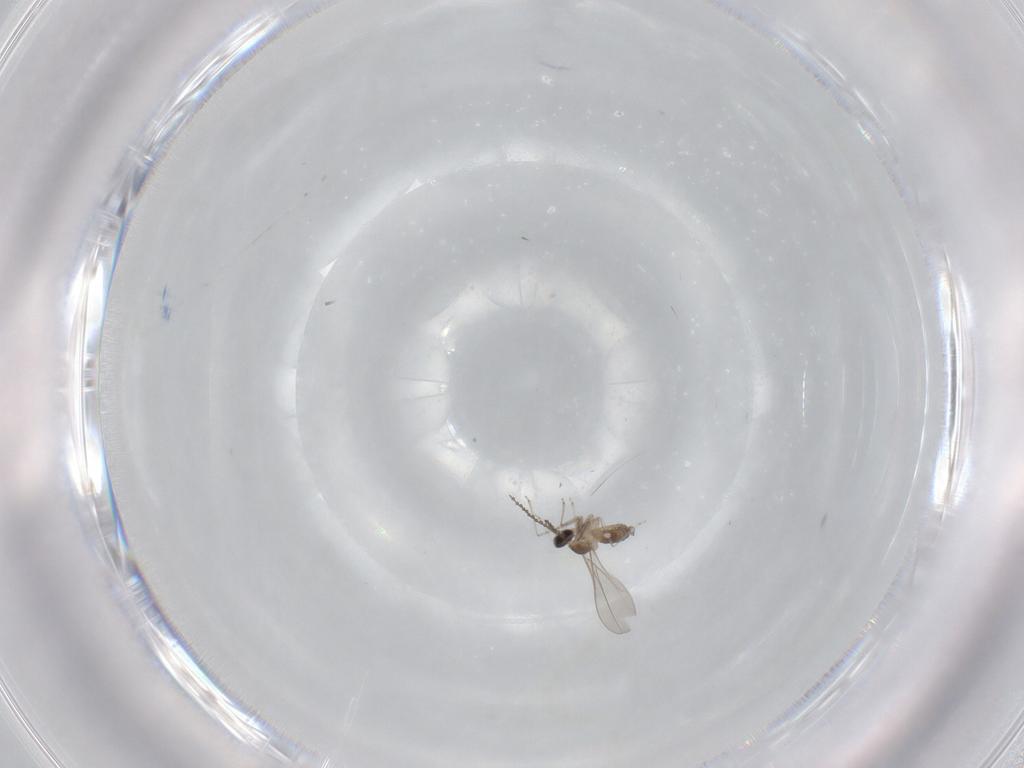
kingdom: Animalia
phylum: Arthropoda
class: Insecta
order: Diptera
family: Cecidomyiidae
